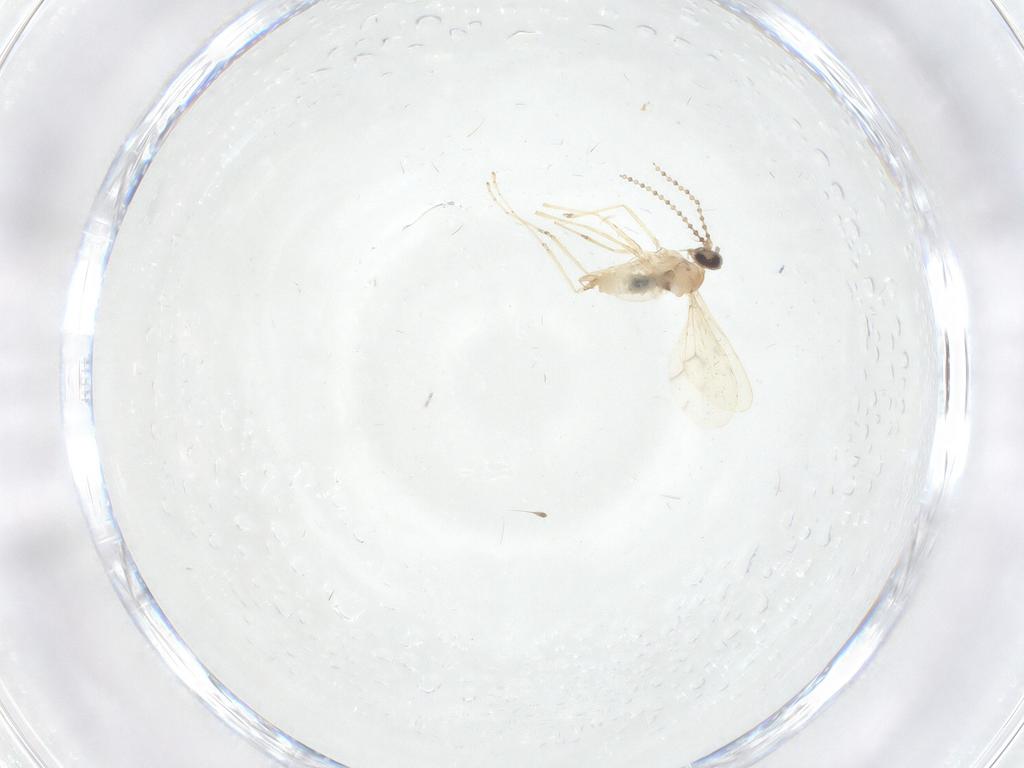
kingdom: Animalia
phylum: Arthropoda
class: Insecta
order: Diptera
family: Cecidomyiidae
